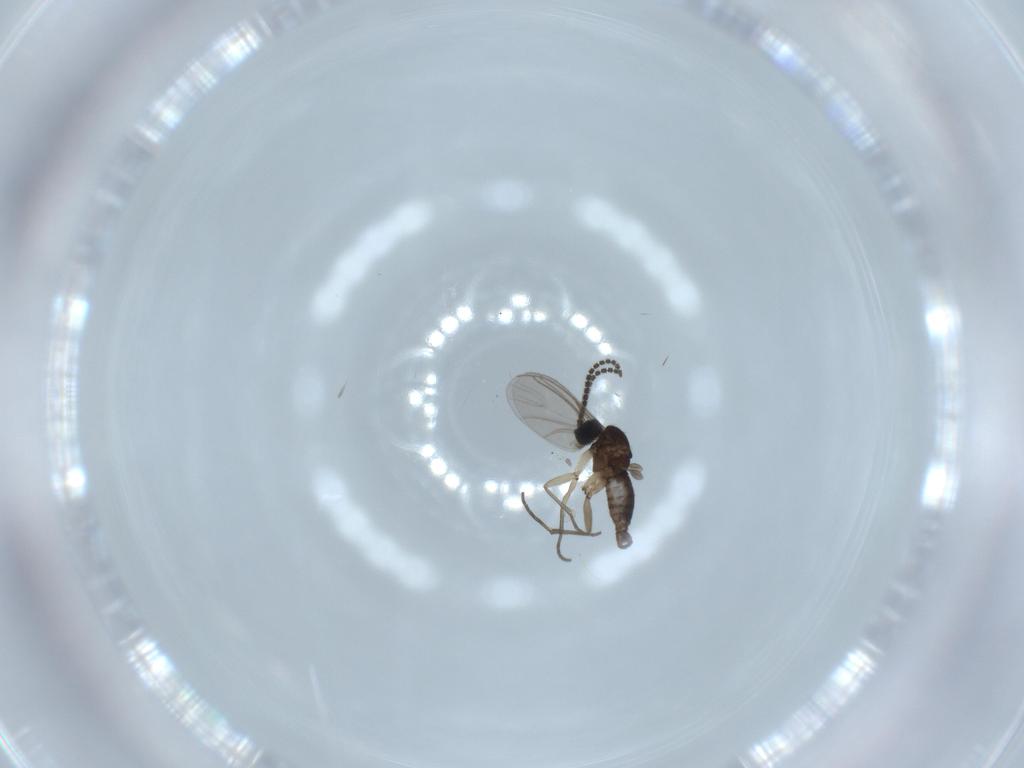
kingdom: Animalia
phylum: Arthropoda
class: Insecta
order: Diptera
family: Sciaridae
